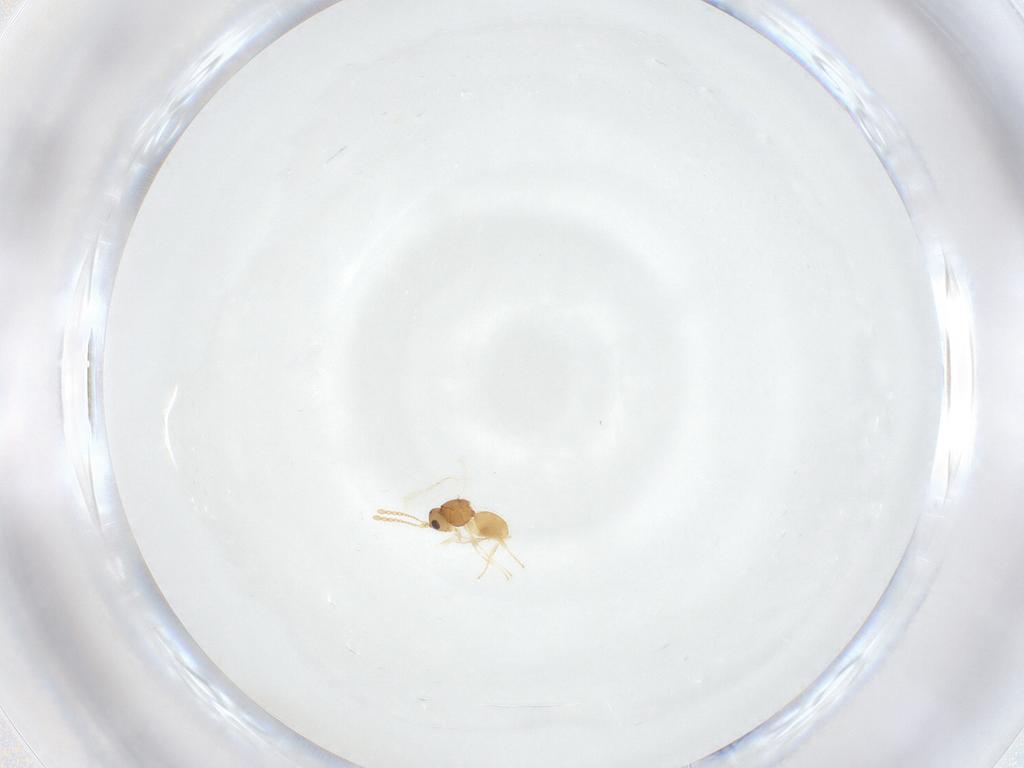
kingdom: Animalia
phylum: Arthropoda
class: Insecta
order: Hymenoptera
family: Figitidae
